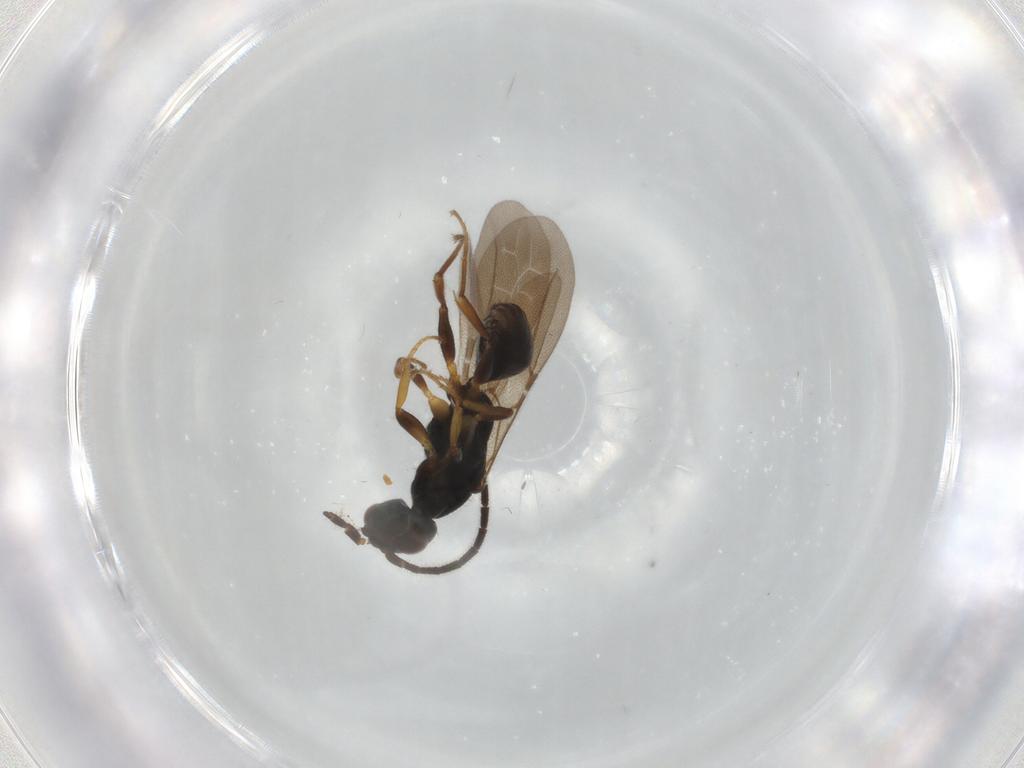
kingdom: Animalia
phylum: Arthropoda
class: Insecta
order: Hymenoptera
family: Bethylidae
